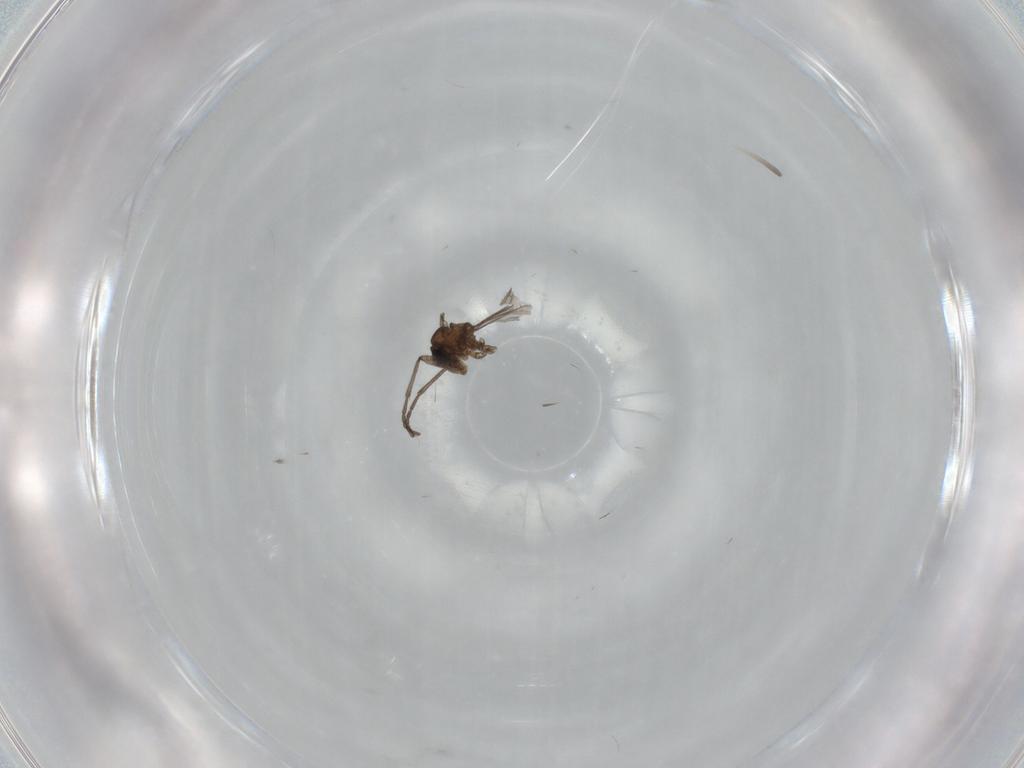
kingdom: Animalia
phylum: Arthropoda
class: Insecta
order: Diptera
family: Sciaridae
